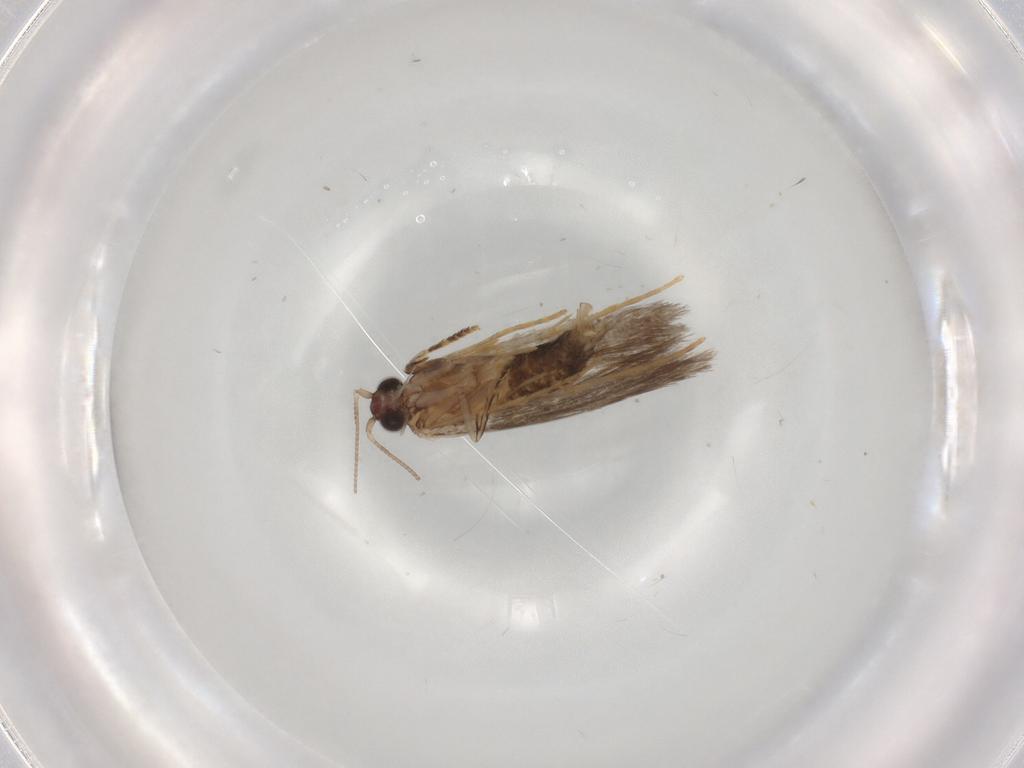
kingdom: Animalia
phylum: Arthropoda
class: Insecta
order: Lepidoptera
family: Tineidae
